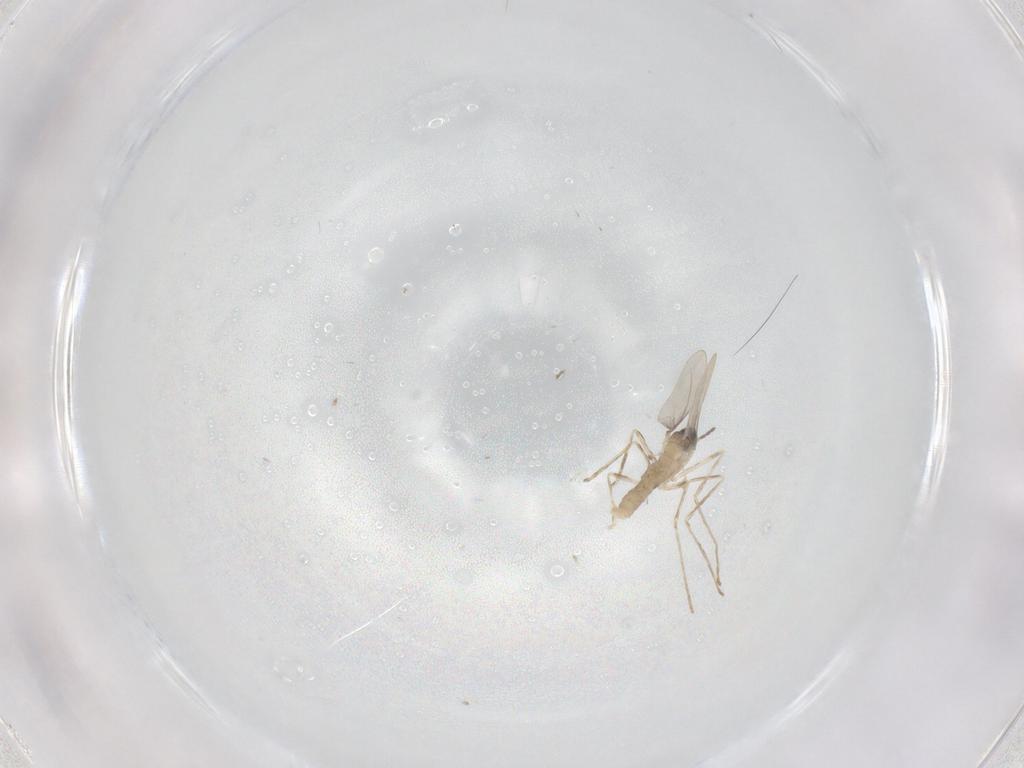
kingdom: Animalia
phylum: Arthropoda
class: Insecta
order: Diptera
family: Cecidomyiidae
